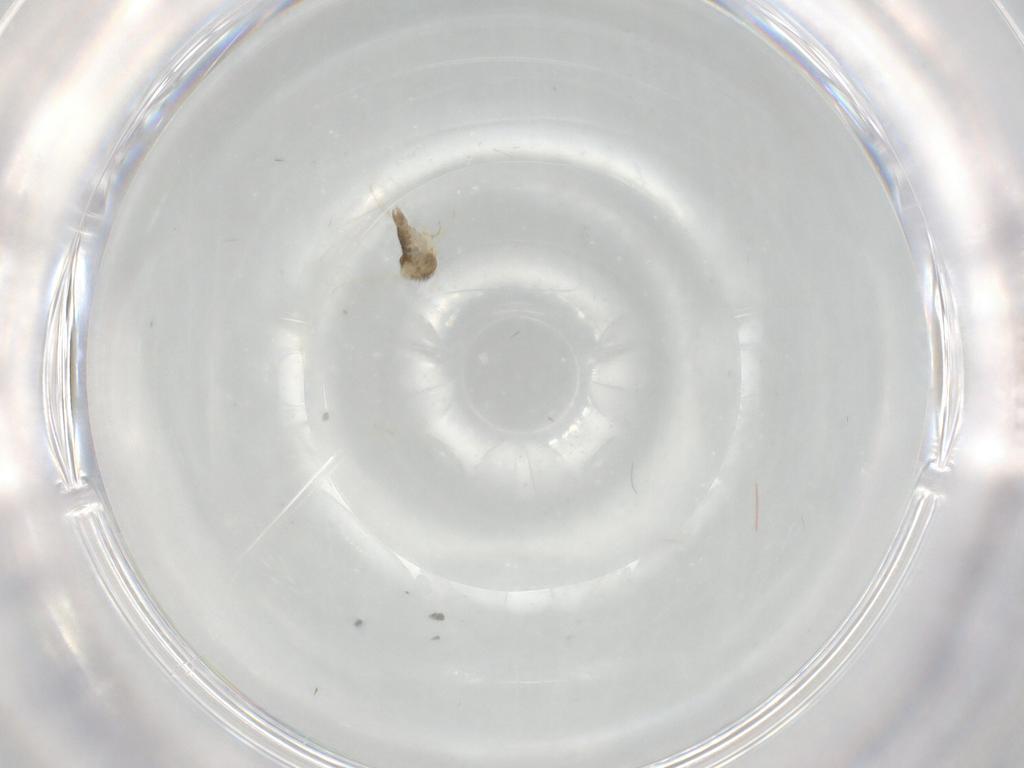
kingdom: Animalia
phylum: Arthropoda
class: Insecta
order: Diptera
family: Chironomidae
